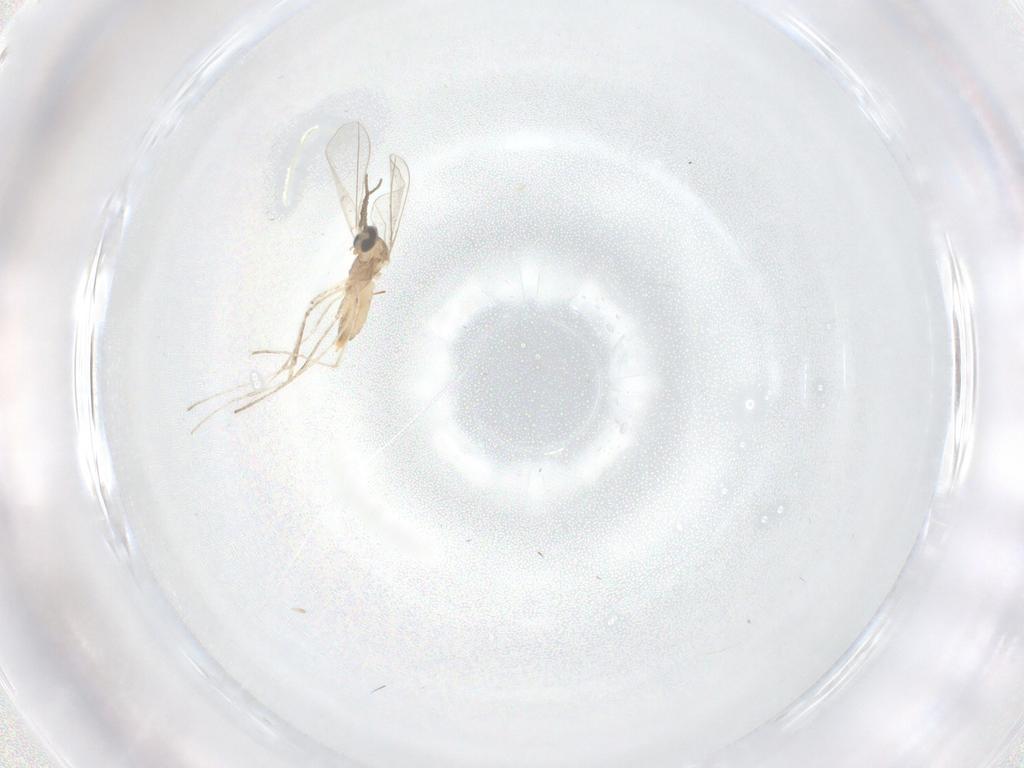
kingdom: Animalia
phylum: Arthropoda
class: Insecta
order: Diptera
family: Cecidomyiidae
